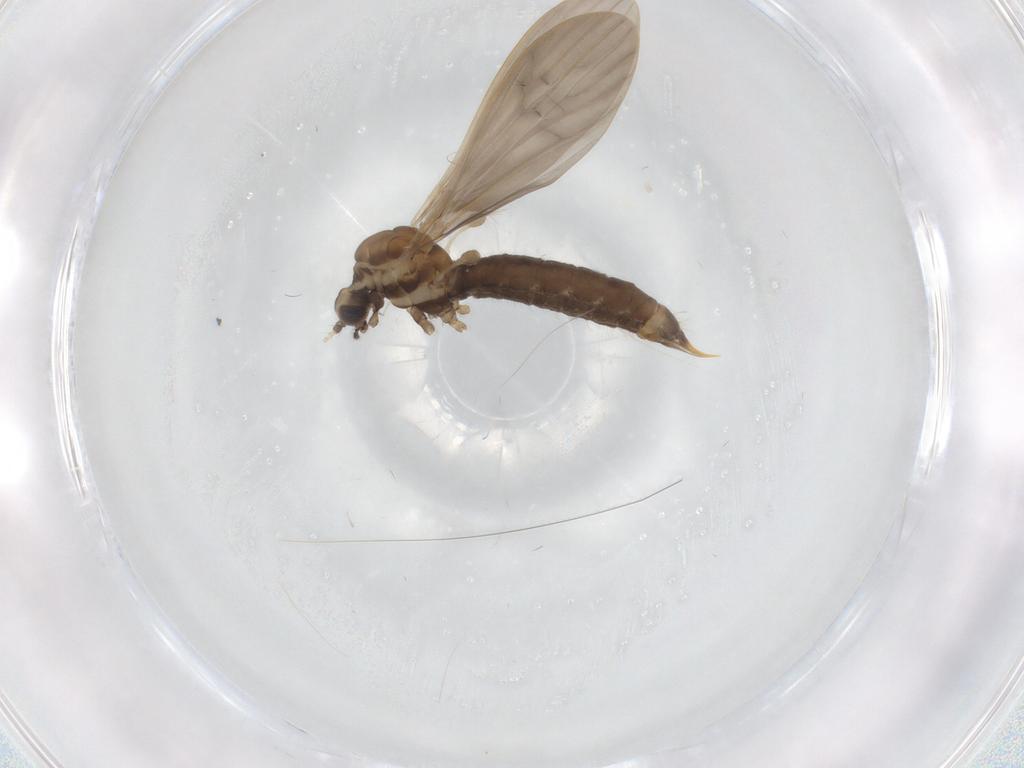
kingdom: Animalia
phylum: Arthropoda
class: Insecta
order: Diptera
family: Limoniidae
